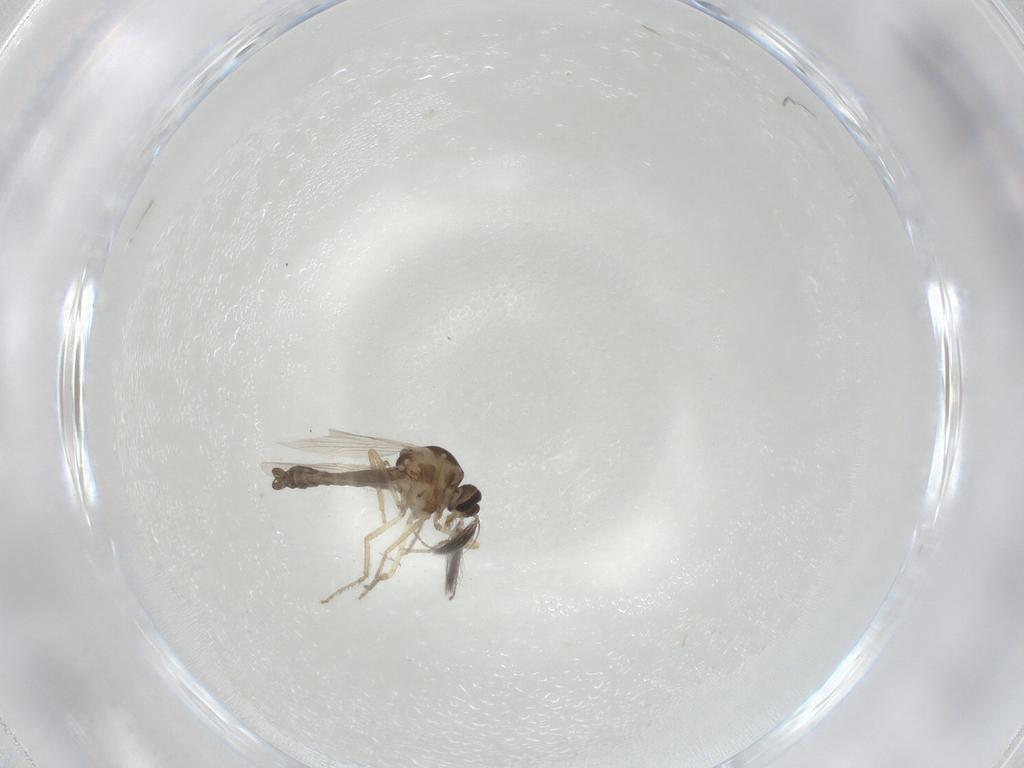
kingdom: Animalia
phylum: Arthropoda
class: Insecta
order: Diptera
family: Ceratopogonidae
